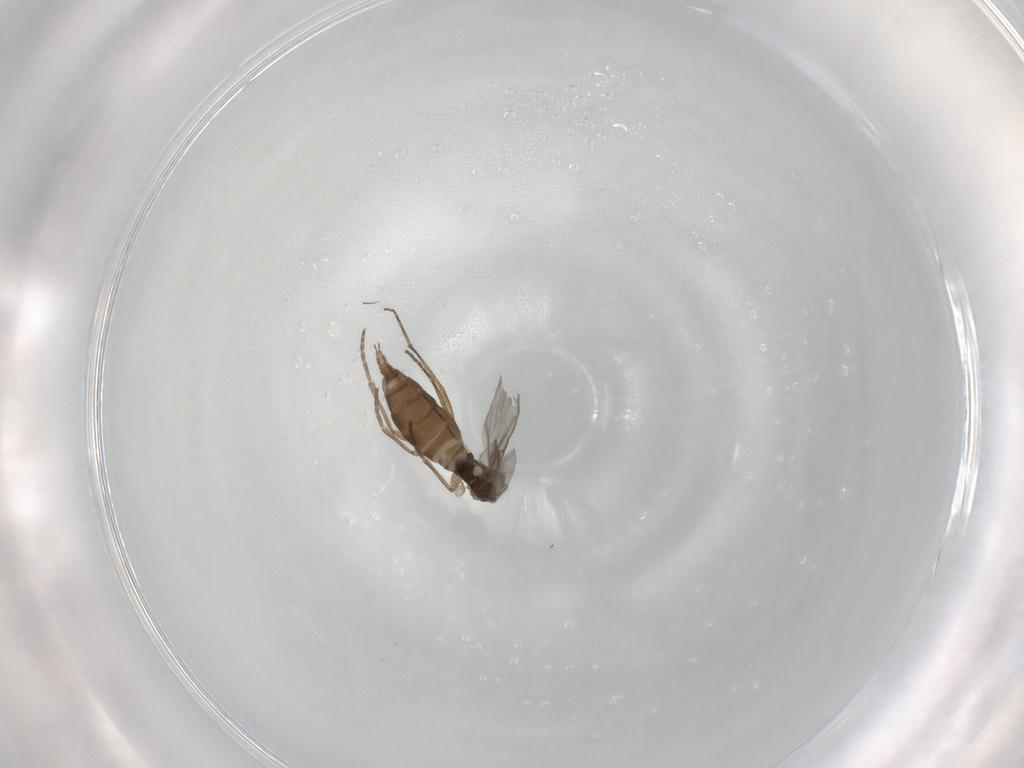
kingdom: Animalia
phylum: Arthropoda
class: Insecta
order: Diptera
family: Sciaridae
